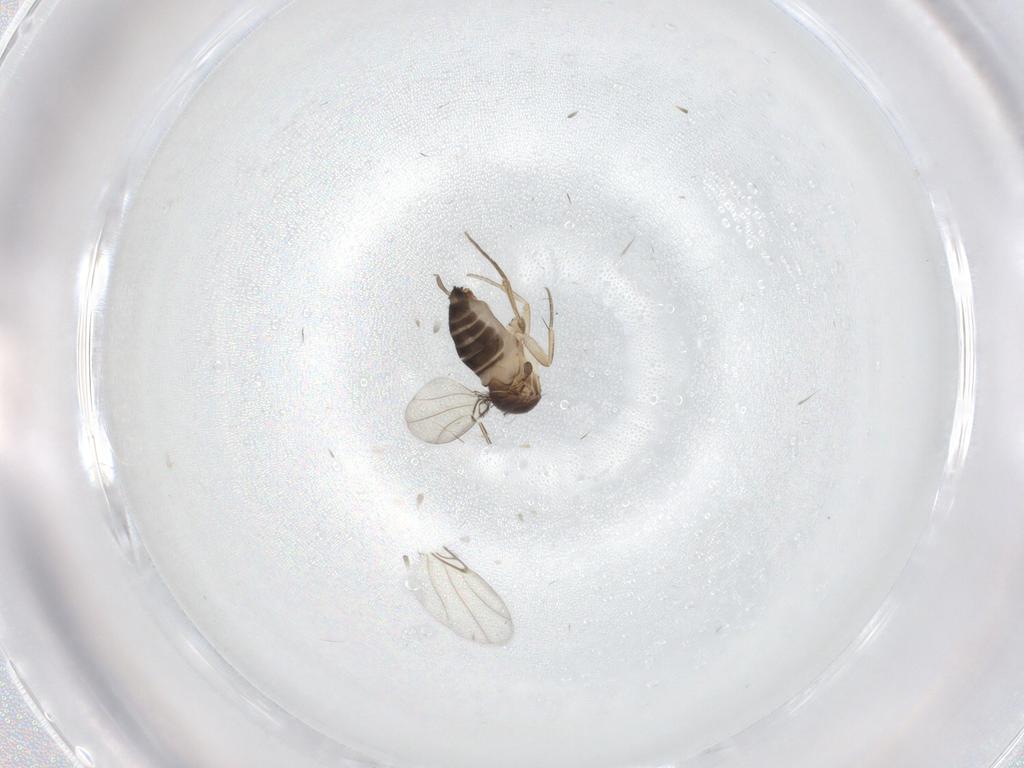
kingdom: Animalia
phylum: Arthropoda
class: Insecta
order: Diptera
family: Phoridae
